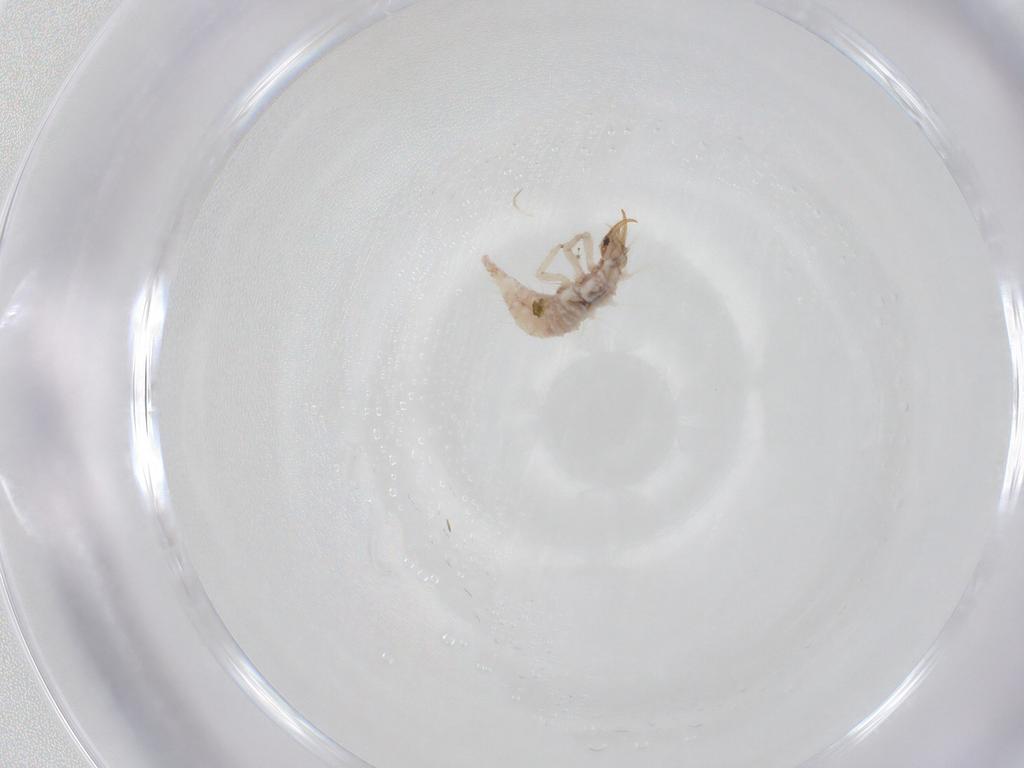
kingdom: Animalia
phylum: Arthropoda
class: Insecta
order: Neuroptera
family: Chrysopidae
